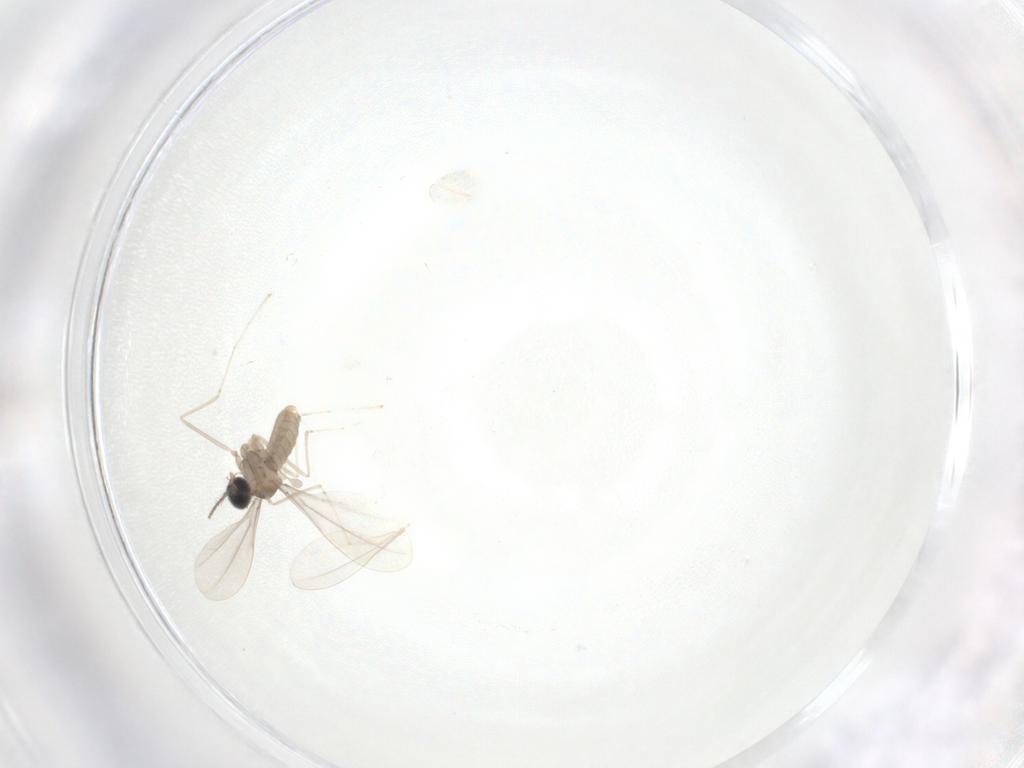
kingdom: Animalia
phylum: Arthropoda
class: Insecta
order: Diptera
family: Cecidomyiidae
